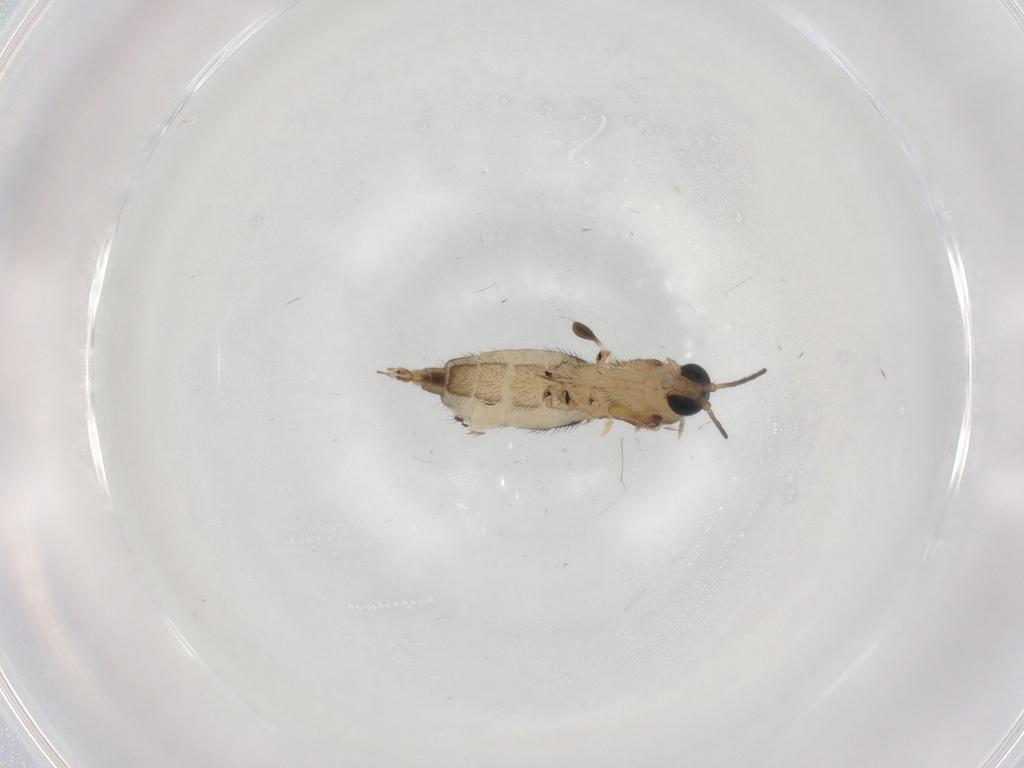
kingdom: Animalia
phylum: Arthropoda
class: Insecta
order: Diptera
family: Sciaridae
